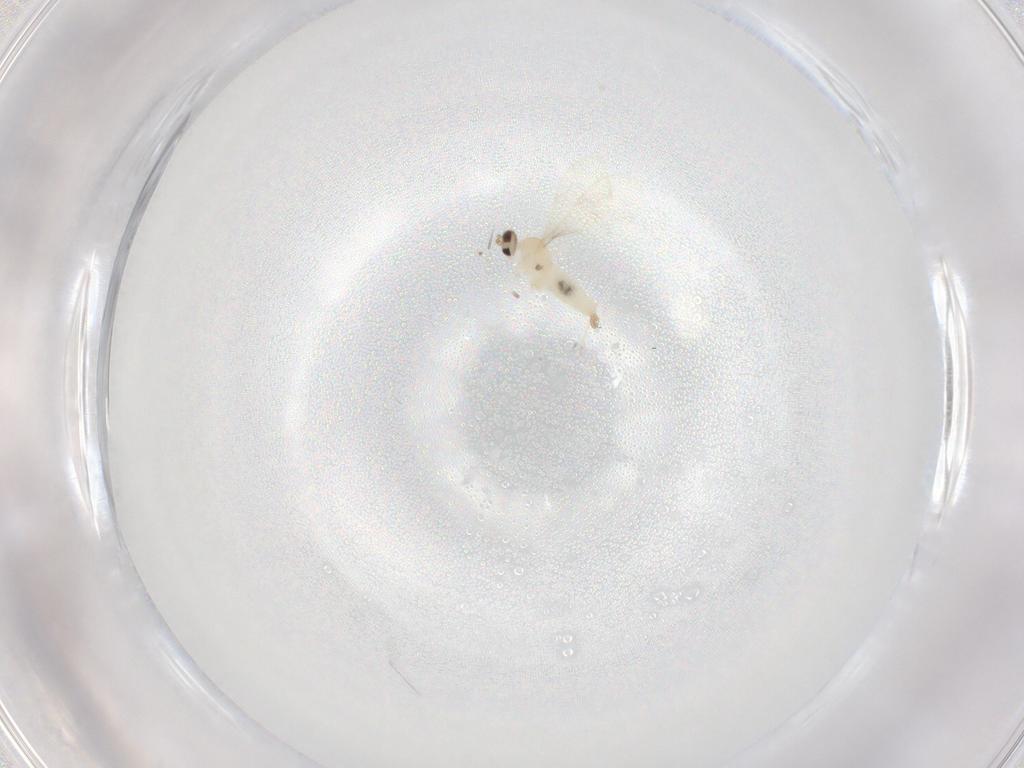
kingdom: Animalia
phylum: Arthropoda
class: Insecta
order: Diptera
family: Cecidomyiidae
